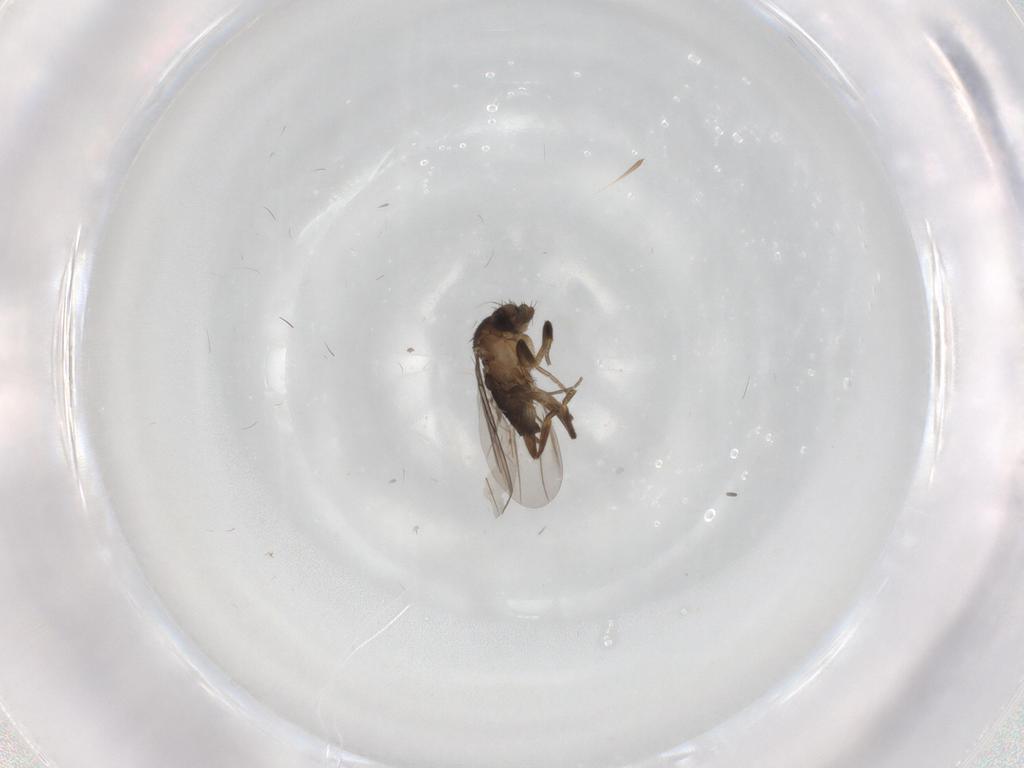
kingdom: Animalia
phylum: Arthropoda
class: Insecta
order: Diptera
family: Phoridae
